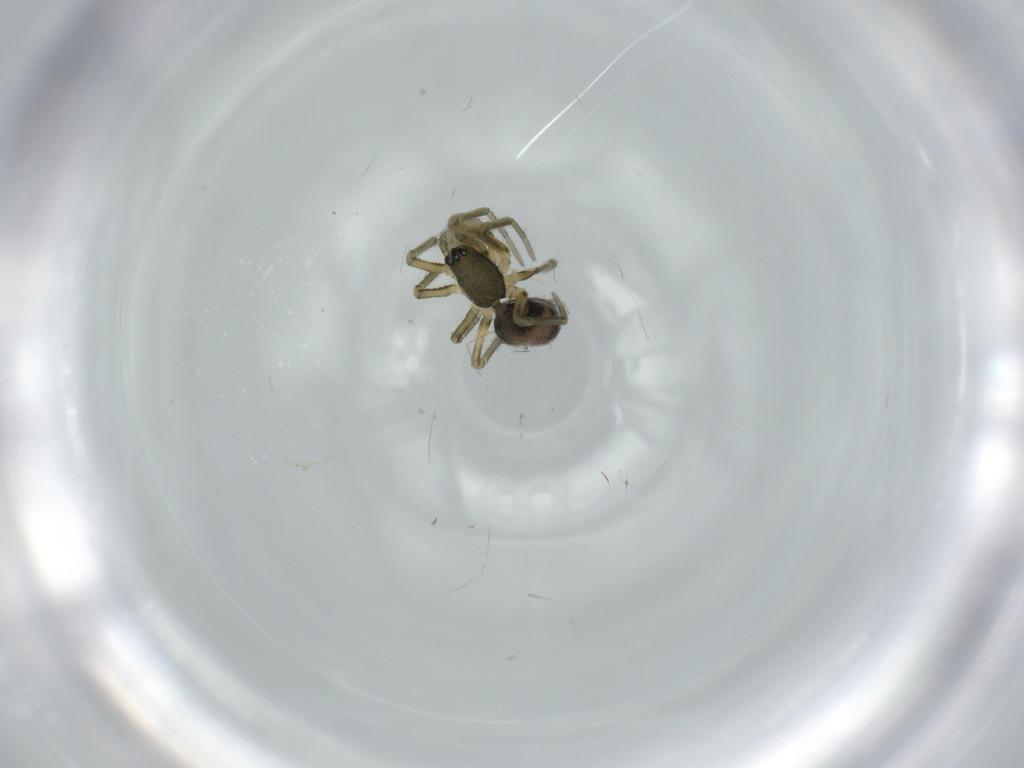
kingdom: Animalia
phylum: Arthropoda
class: Arachnida
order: Araneae
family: Linyphiidae
